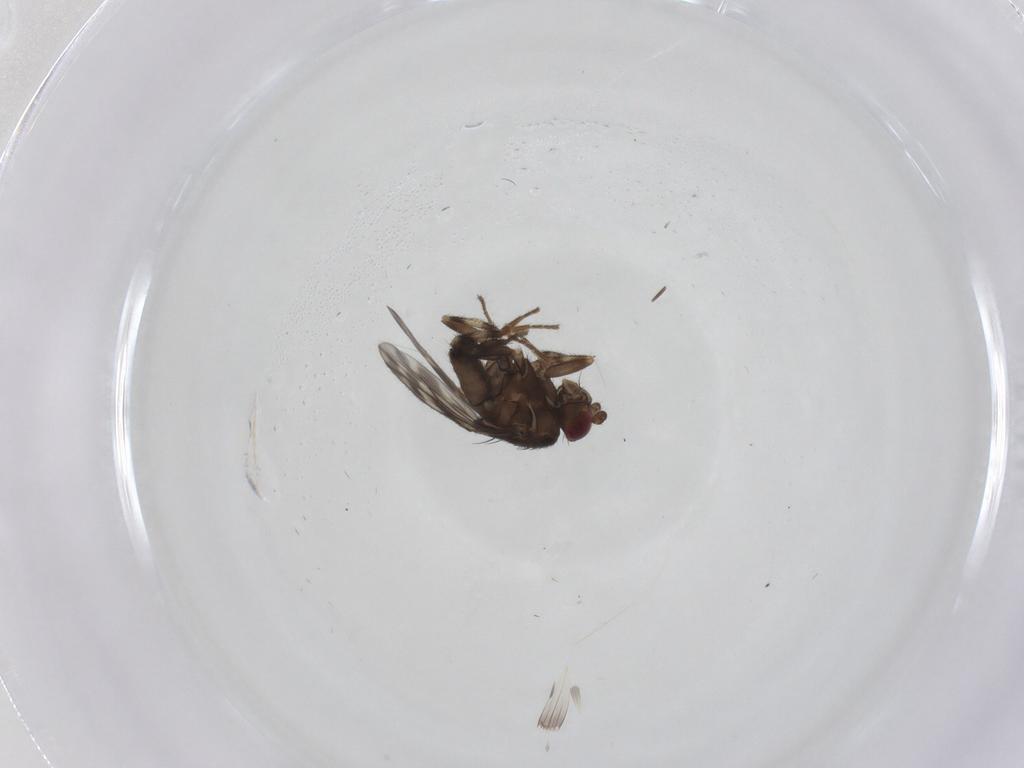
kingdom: Animalia
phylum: Arthropoda
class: Insecta
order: Diptera
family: Sphaeroceridae
